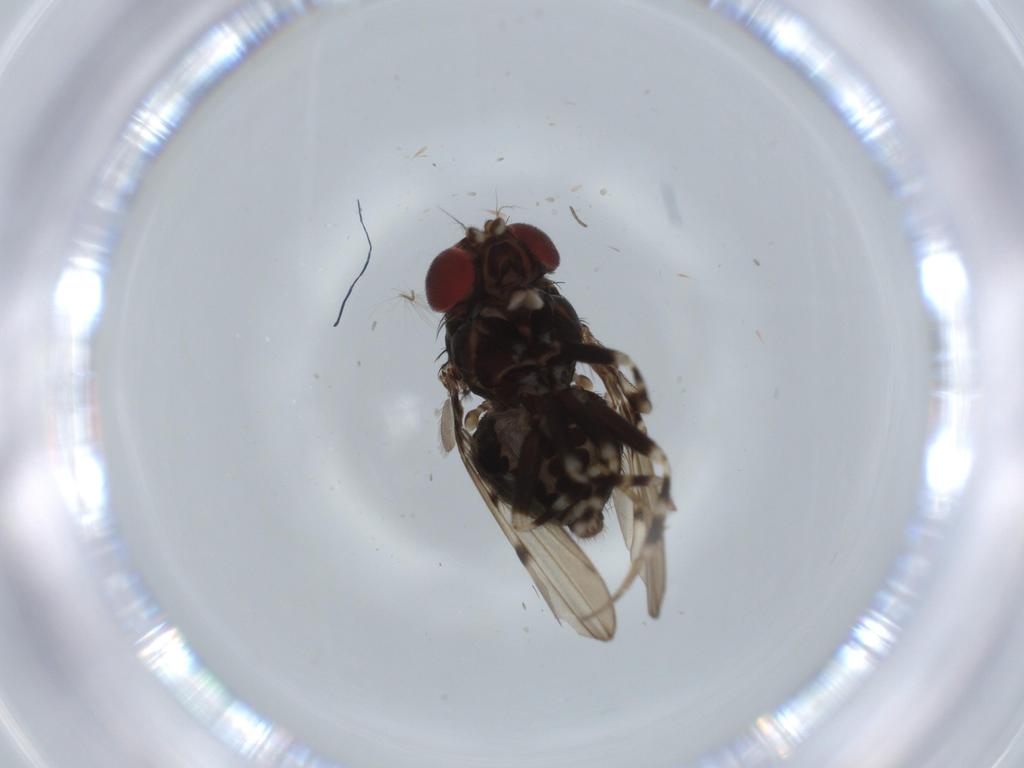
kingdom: Animalia
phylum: Arthropoda
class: Insecta
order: Diptera
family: Drosophilidae
